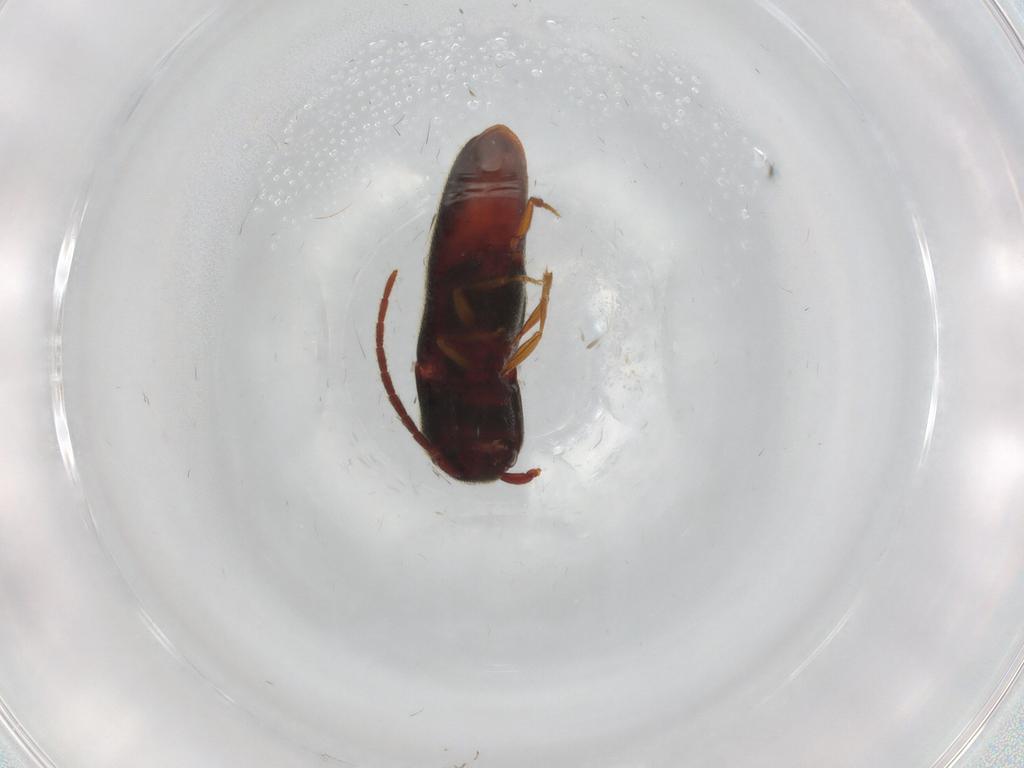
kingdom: Animalia
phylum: Arthropoda
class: Insecta
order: Coleoptera
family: Eucnemidae
